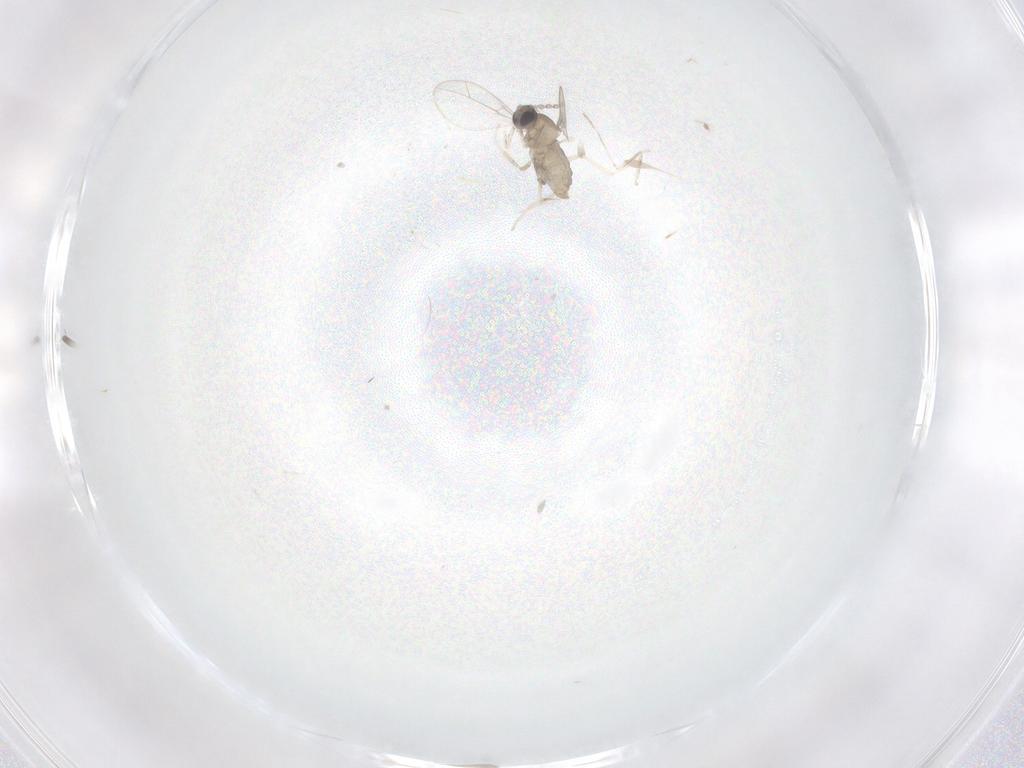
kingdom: Animalia
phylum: Arthropoda
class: Insecta
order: Diptera
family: Cecidomyiidae
